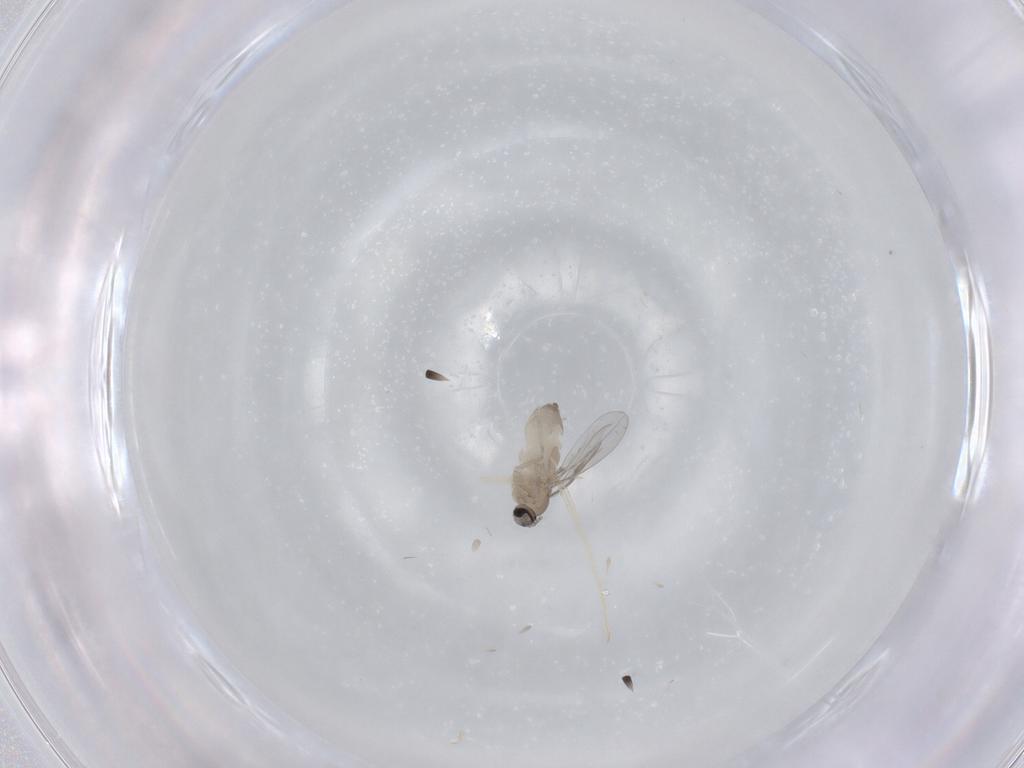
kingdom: Animalia
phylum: Arthropoda
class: Insecta
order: Diptera
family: Cecidomyiidae
